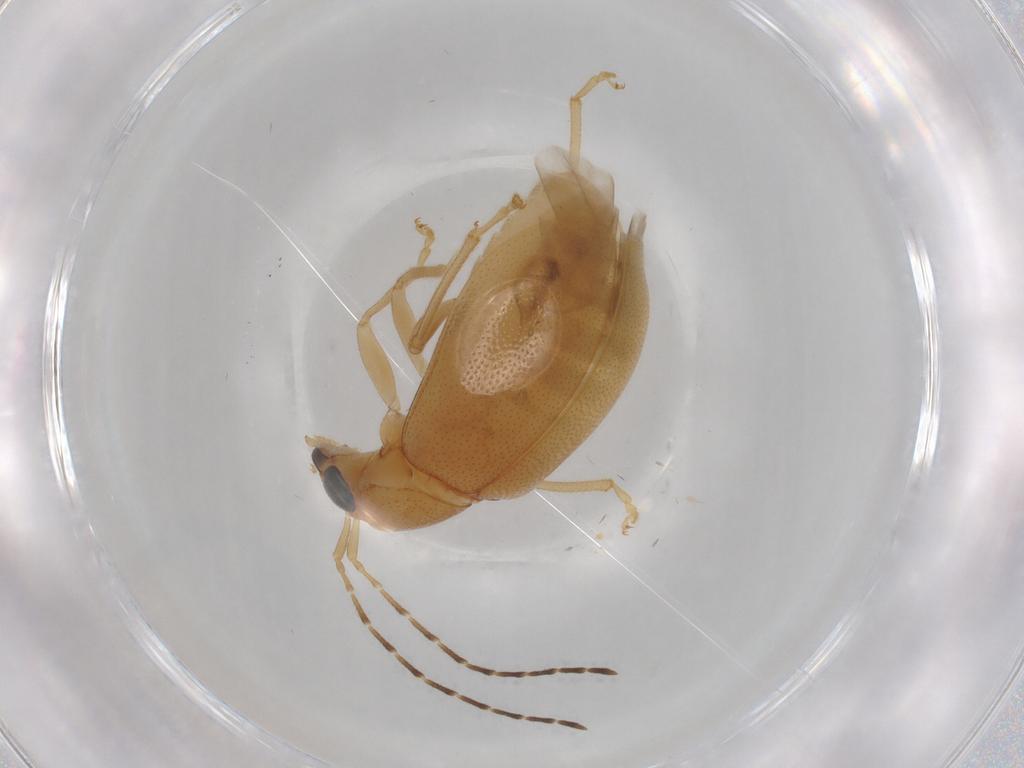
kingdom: Animalia
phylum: Arthropoda
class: Insecta
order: Coleoptera
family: Chrysomelidae
